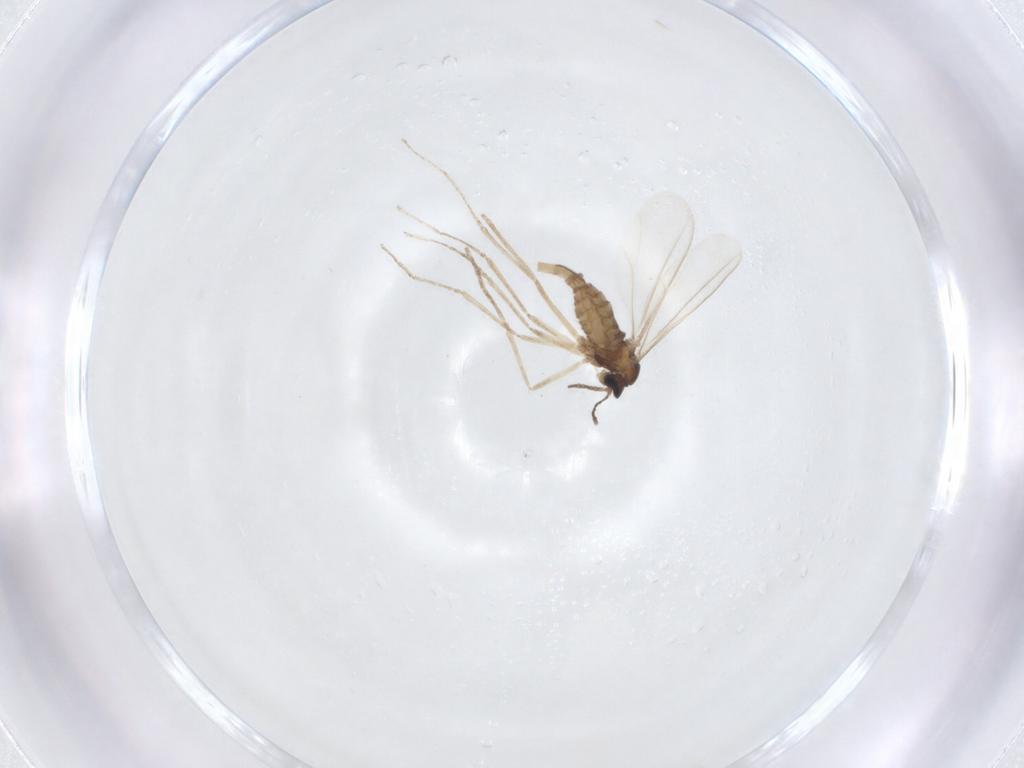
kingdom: Animalia
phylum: Arthropoda
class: Insecta
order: Diptera
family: Cecidomyiidae
